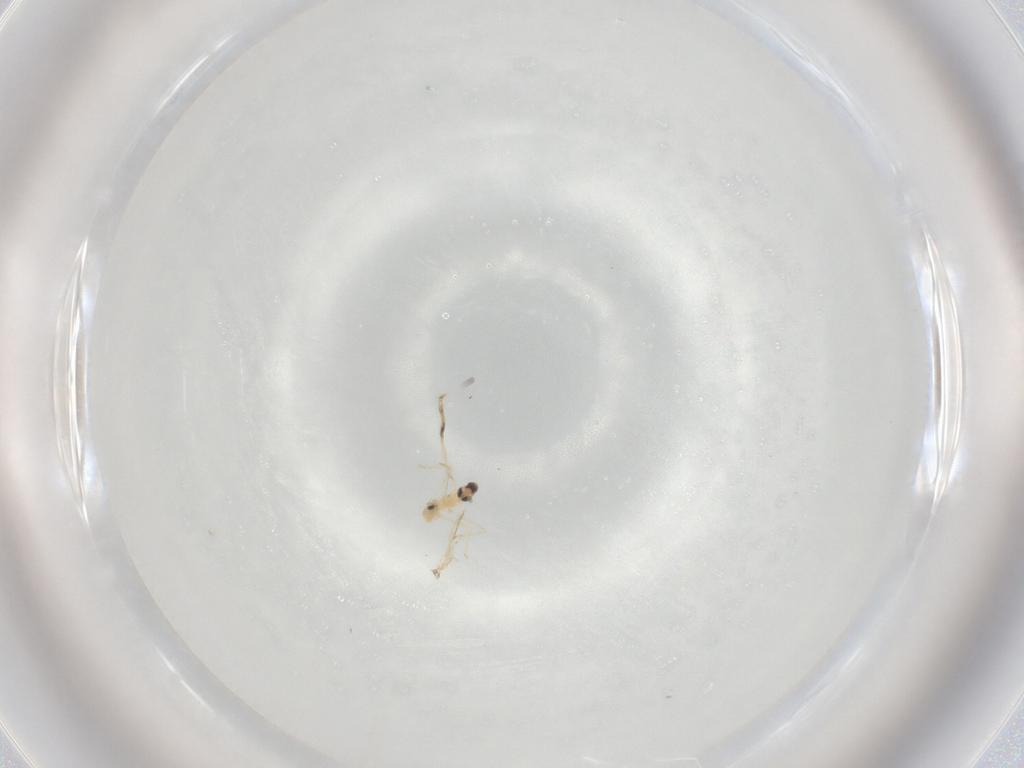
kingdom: Animalia
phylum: Arthropoda
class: Insecta
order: Diptera
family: Cecidomyiidae
